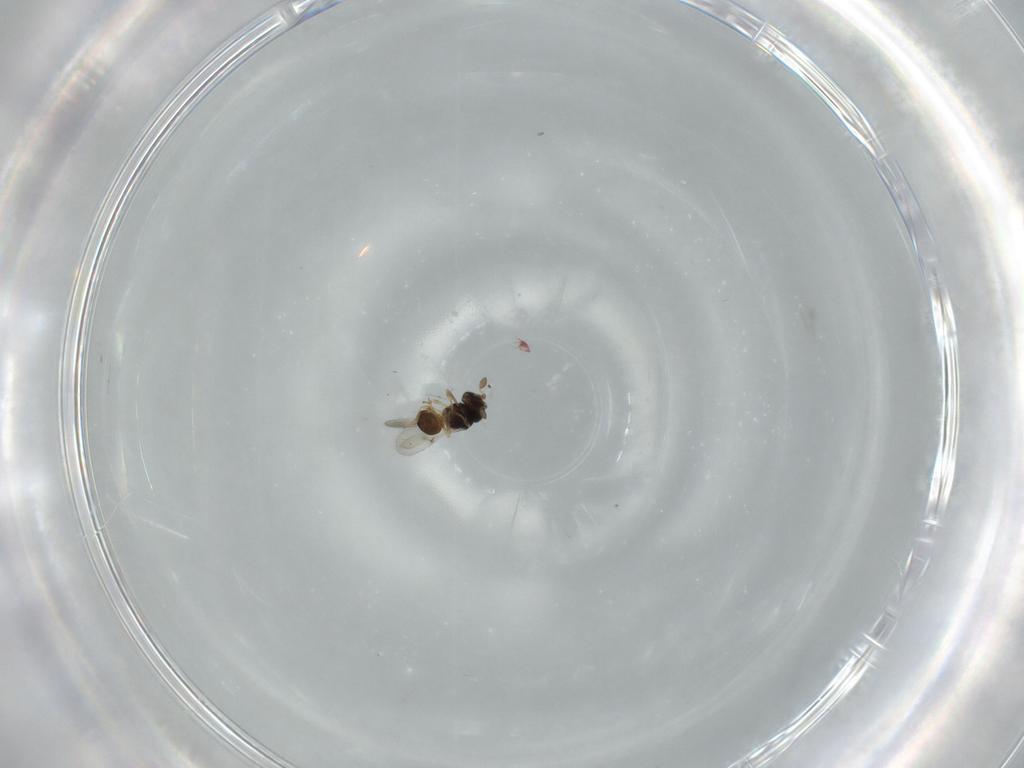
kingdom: Animalia
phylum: Arthropoda
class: Insecta
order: Hymenoptera
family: Scelionidae
